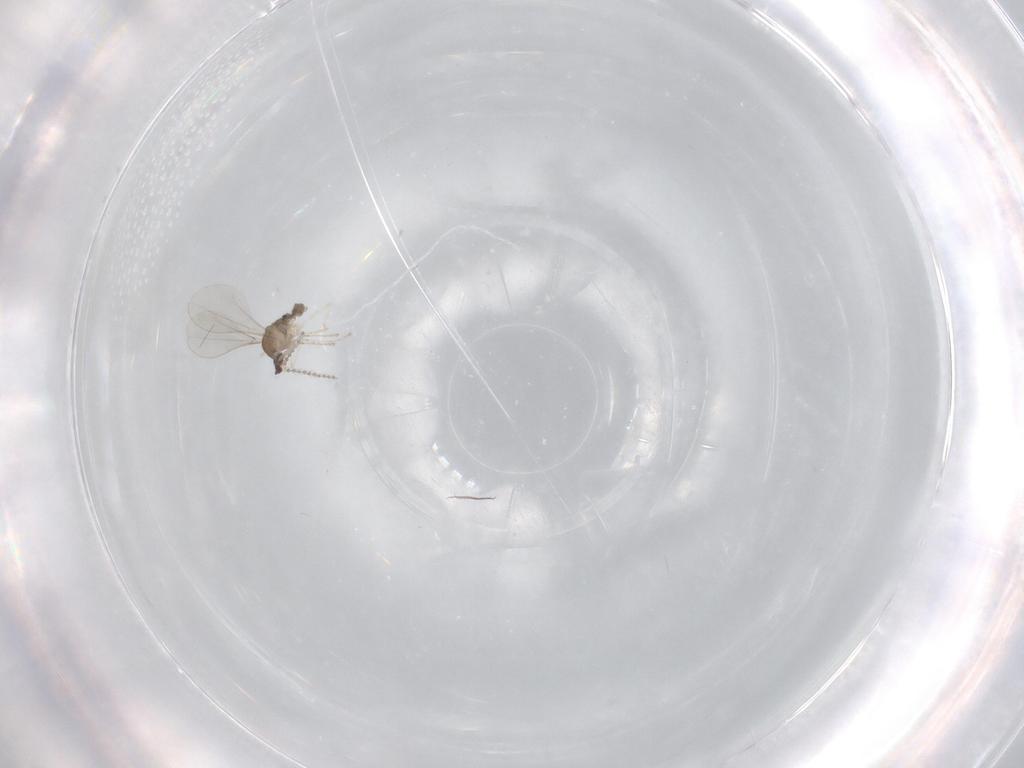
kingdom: Animalia
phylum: Arthropoda
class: Insecta
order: Diptera
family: Cecidomyiidae
